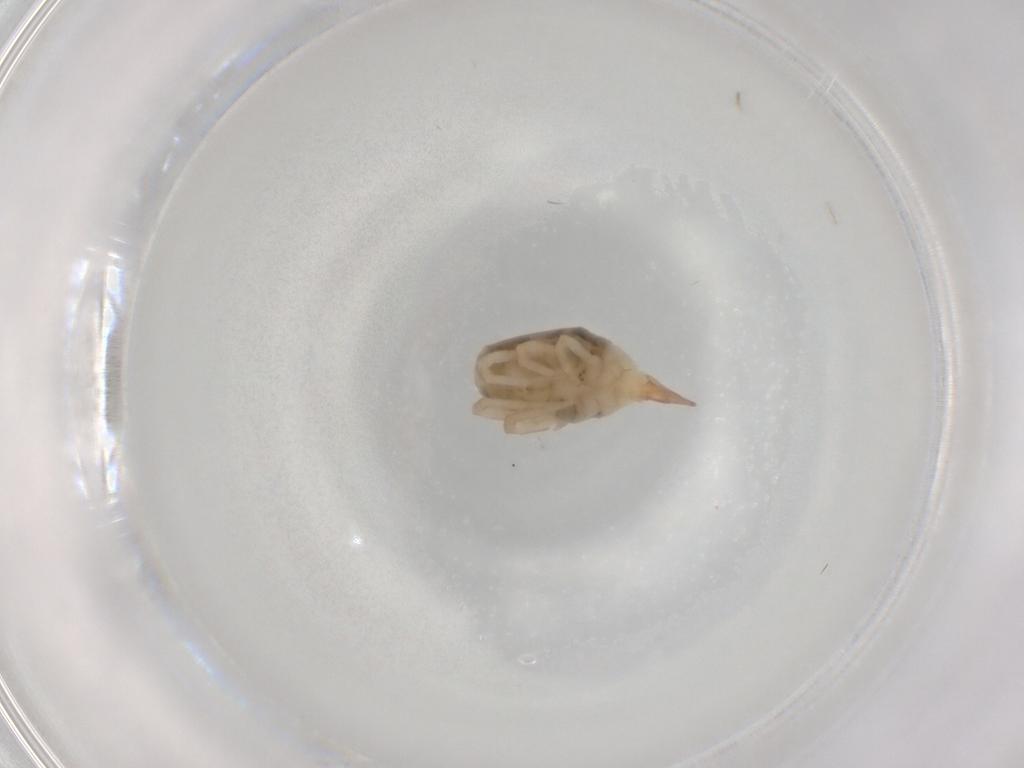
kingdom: Animalia
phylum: Arthropoda
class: Arachnida
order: Trombidiformes
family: Bdellidae
